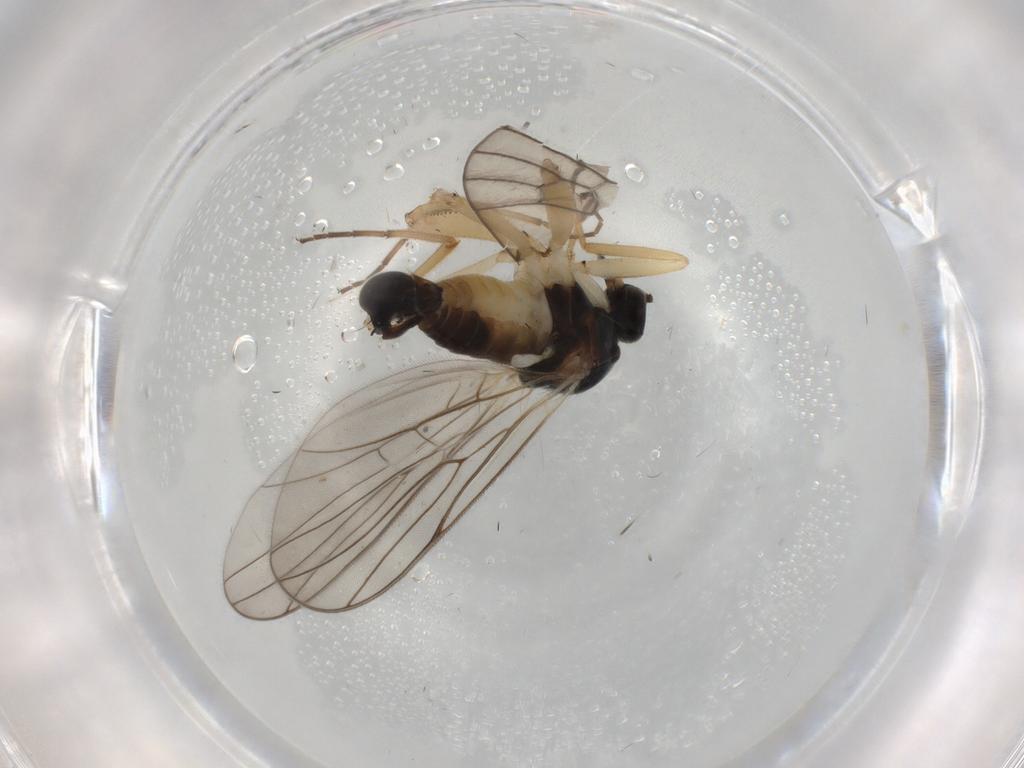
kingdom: Animalia
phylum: Arthropoda
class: Insecta
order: Diptera
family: Hybotidae
